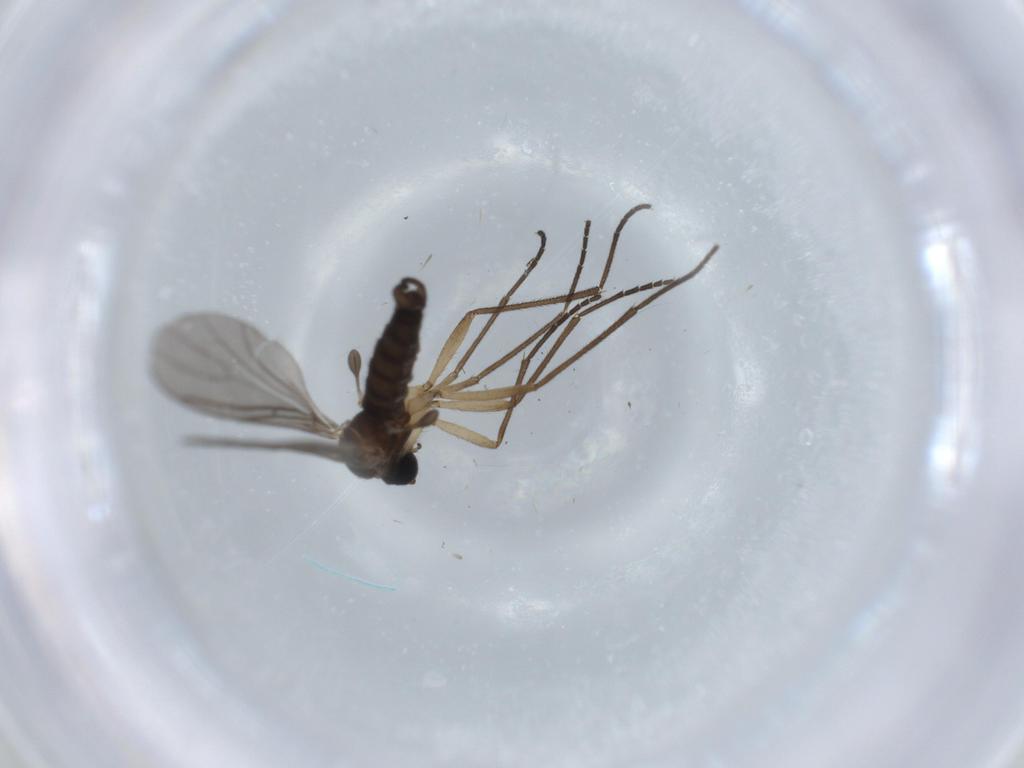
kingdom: Animalia
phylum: Arthropoda
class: Insecta
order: Diptera
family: Sciaridae
